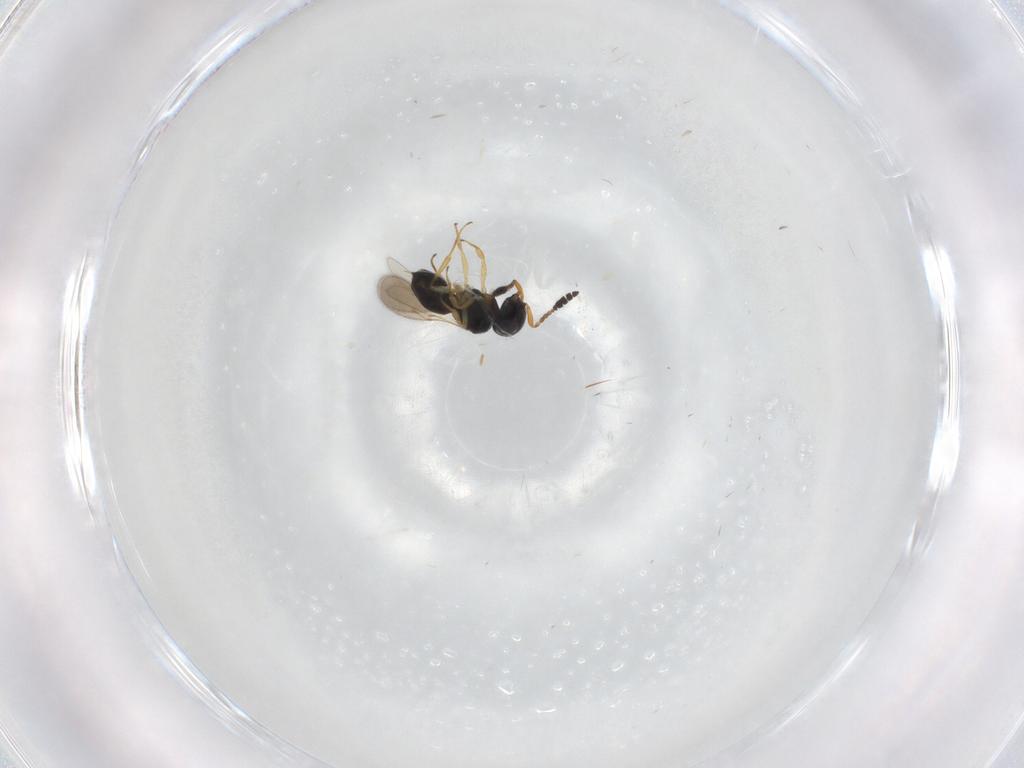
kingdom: Animalia
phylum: Arthropoda
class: Insecta
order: Hymenoptera
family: Scelionidae
